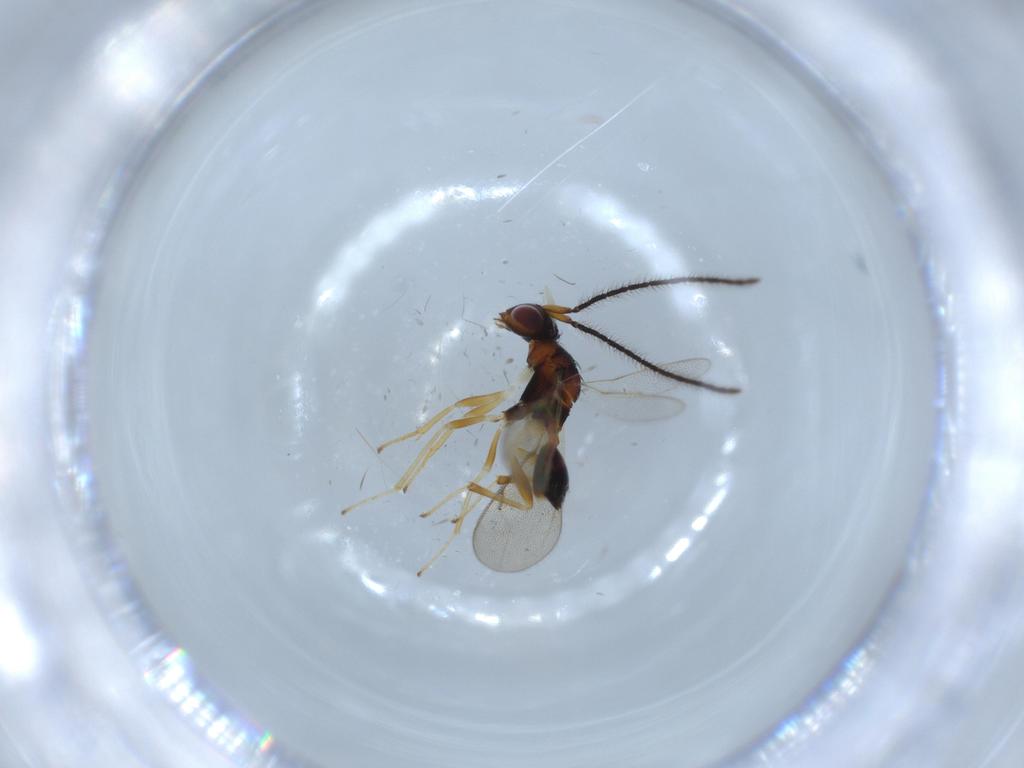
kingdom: Animalia
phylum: Arthropoda
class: Insecta
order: Hymenoptera
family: Diparidae
